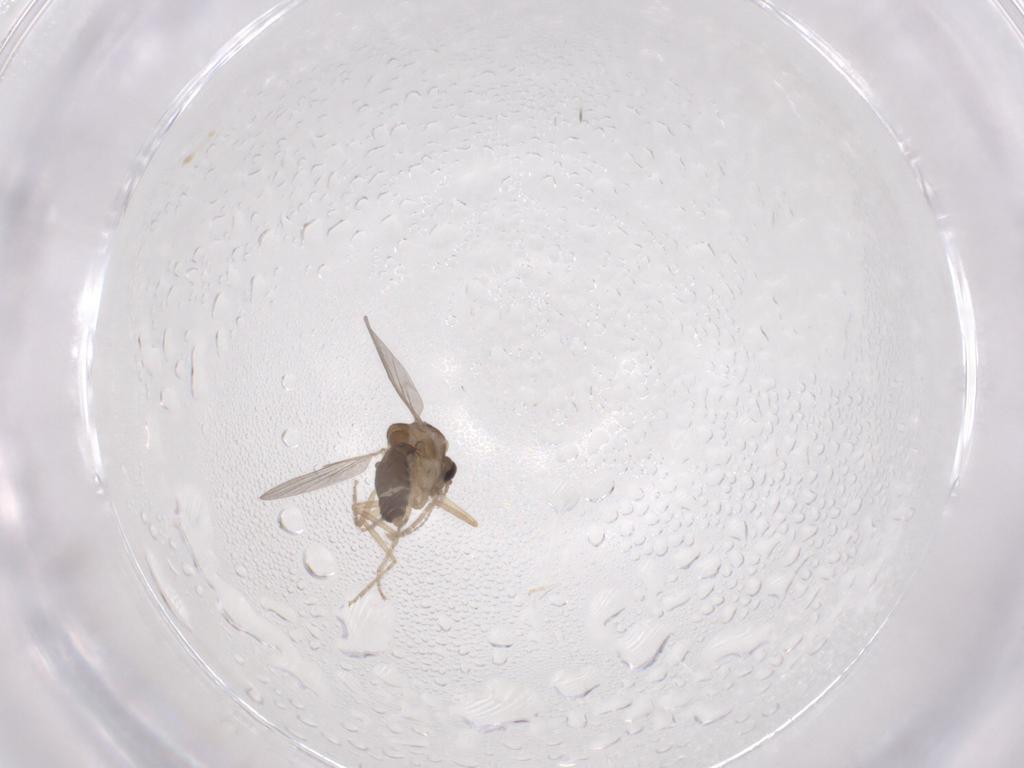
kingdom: Animalia
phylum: Arthropoda
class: Insecta
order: Diptera
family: Ceratopogonidae
